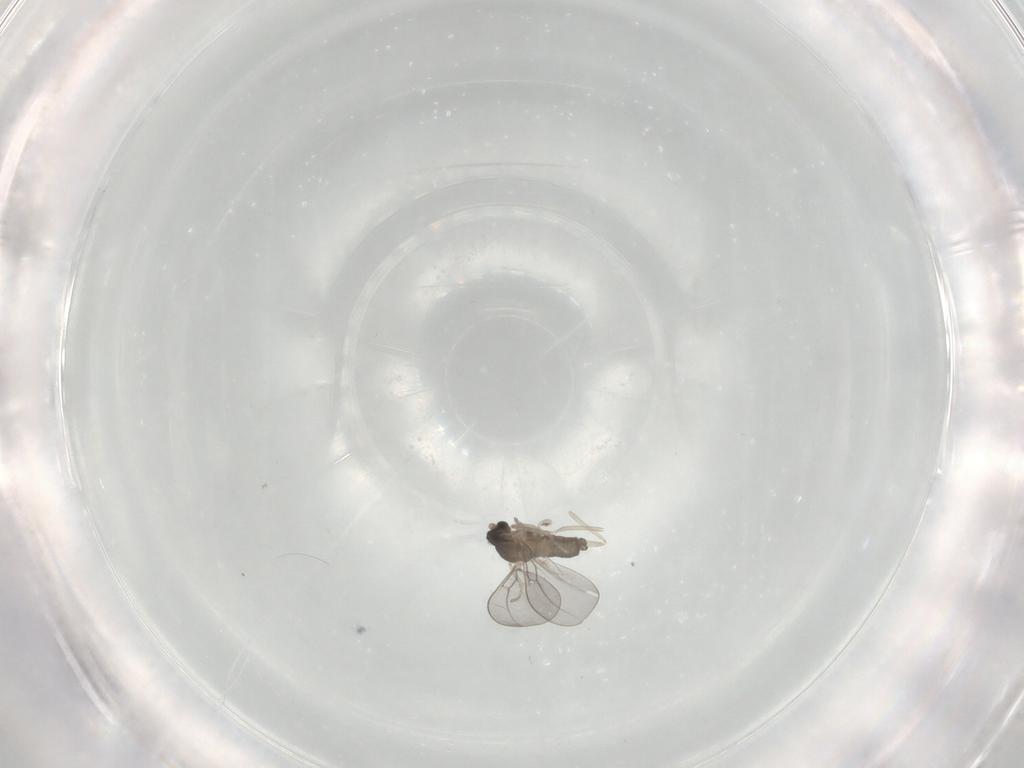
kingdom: Animalia
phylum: Arthropoda
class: Insecta
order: Diptera
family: Cecidomyiidae
